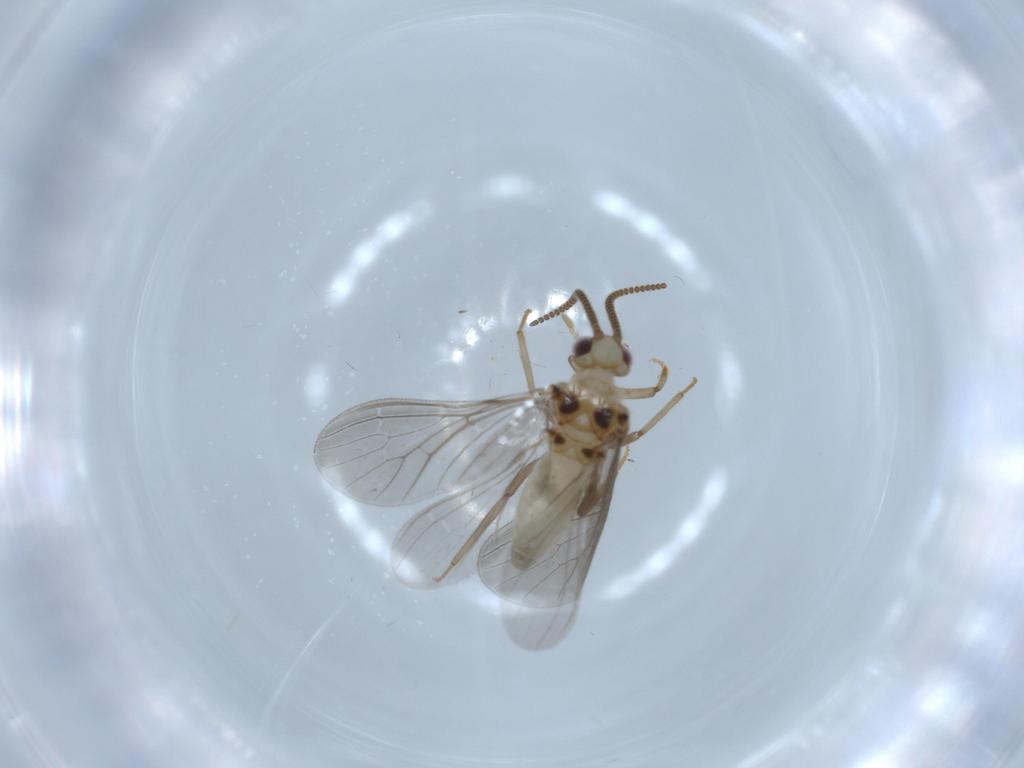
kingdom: Animalia
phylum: Arthropoda
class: Insecta
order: Neuroptera
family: Coniopterygidae
